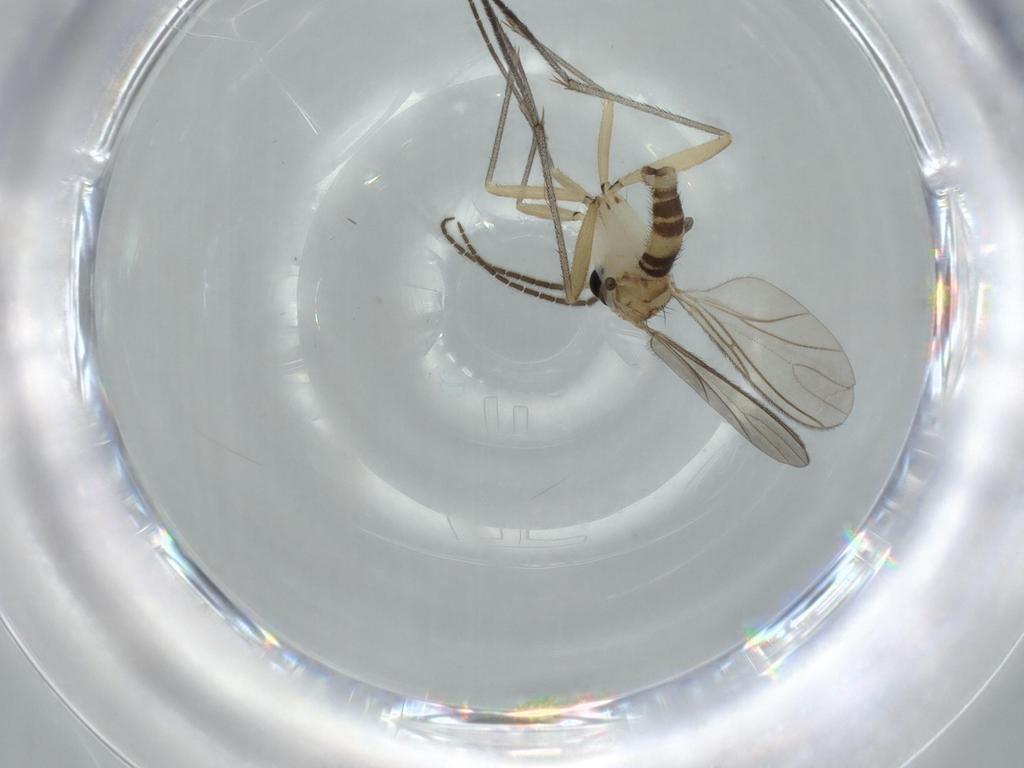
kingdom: Animalia
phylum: Arthropoda
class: Insecta
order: Diptera
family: Sciaridae
